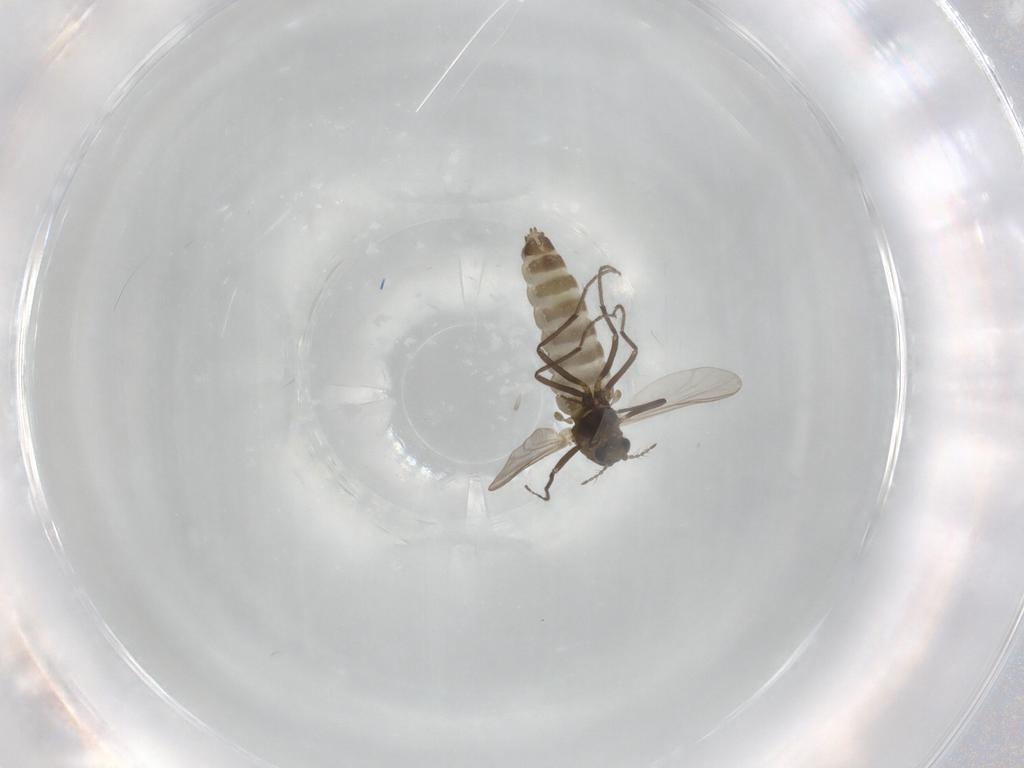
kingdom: Animalia
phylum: Arthropoda
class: Insecta
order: Diptera
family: Chironomidae
